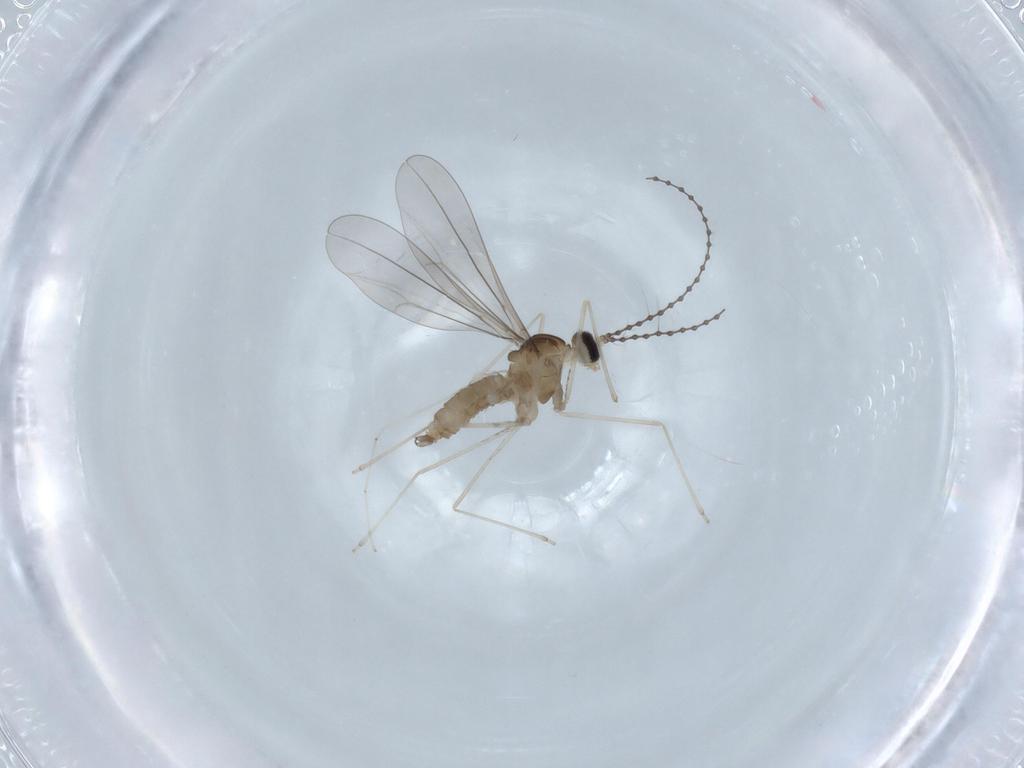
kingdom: Animalia
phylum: Arthropoda
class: Insecta
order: Diptera
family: Cecidomyiidae
